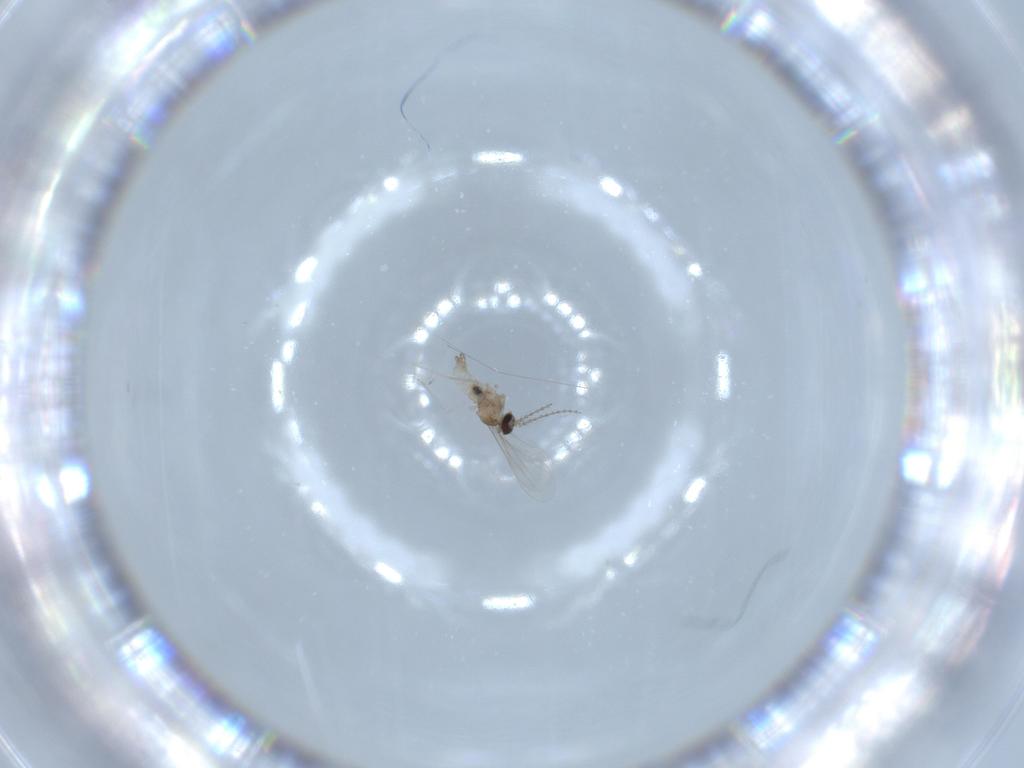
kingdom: Animalia
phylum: Arthropoda
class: Insecta
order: Diptera
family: Cecidomyiidae
